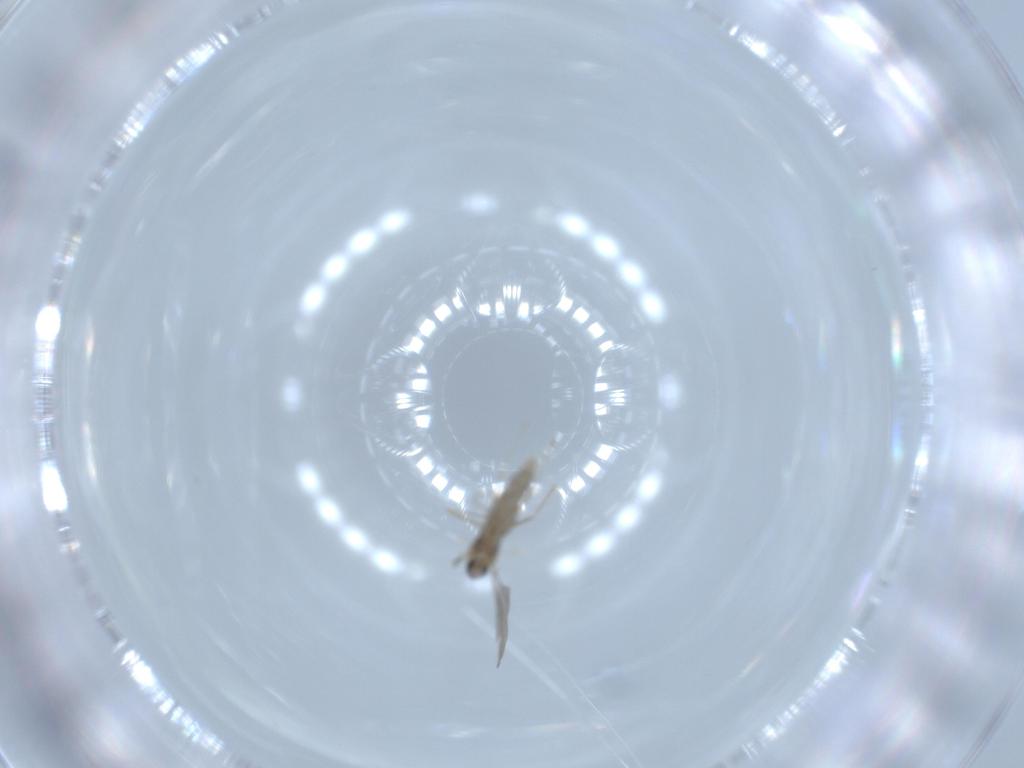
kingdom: Animalia
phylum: Arthropoda
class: Insecta
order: Diptera
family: Cecidomyiidae
